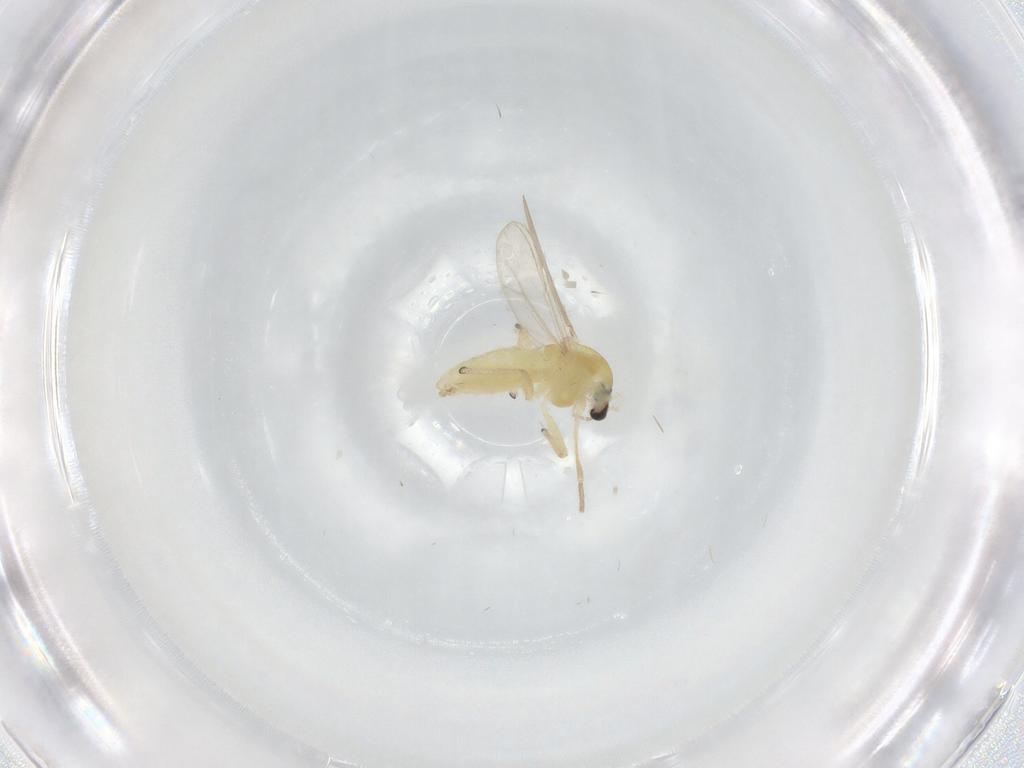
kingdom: Animalia
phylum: Arthropoda
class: Insecta
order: Diptera
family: Chironomidae
